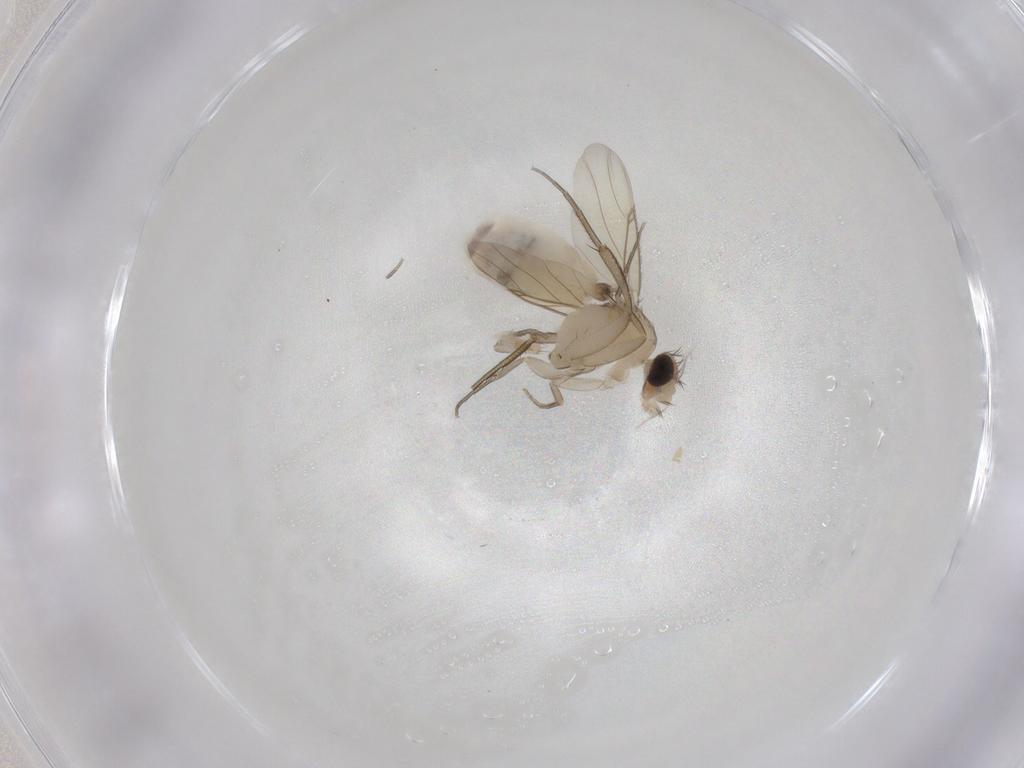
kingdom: Animalia
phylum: Arthropoda
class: Insecta
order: Diptera
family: Phoridae
